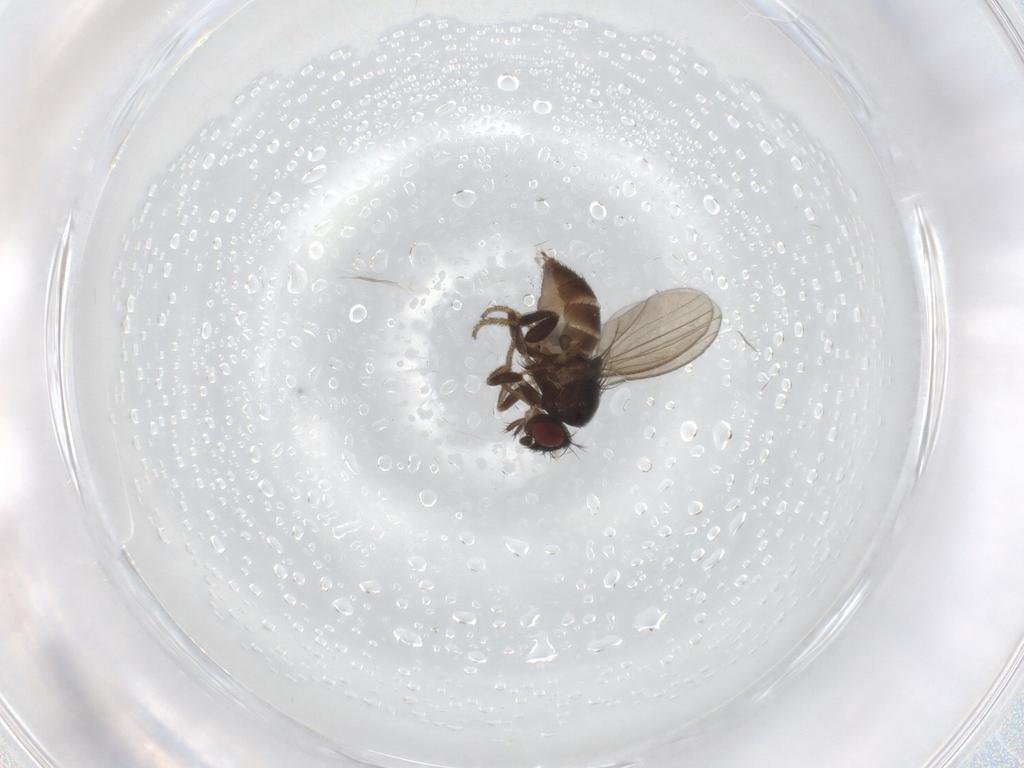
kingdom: Animalia
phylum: Arthropoda
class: Insecta
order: Diptera
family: Milichiidae
